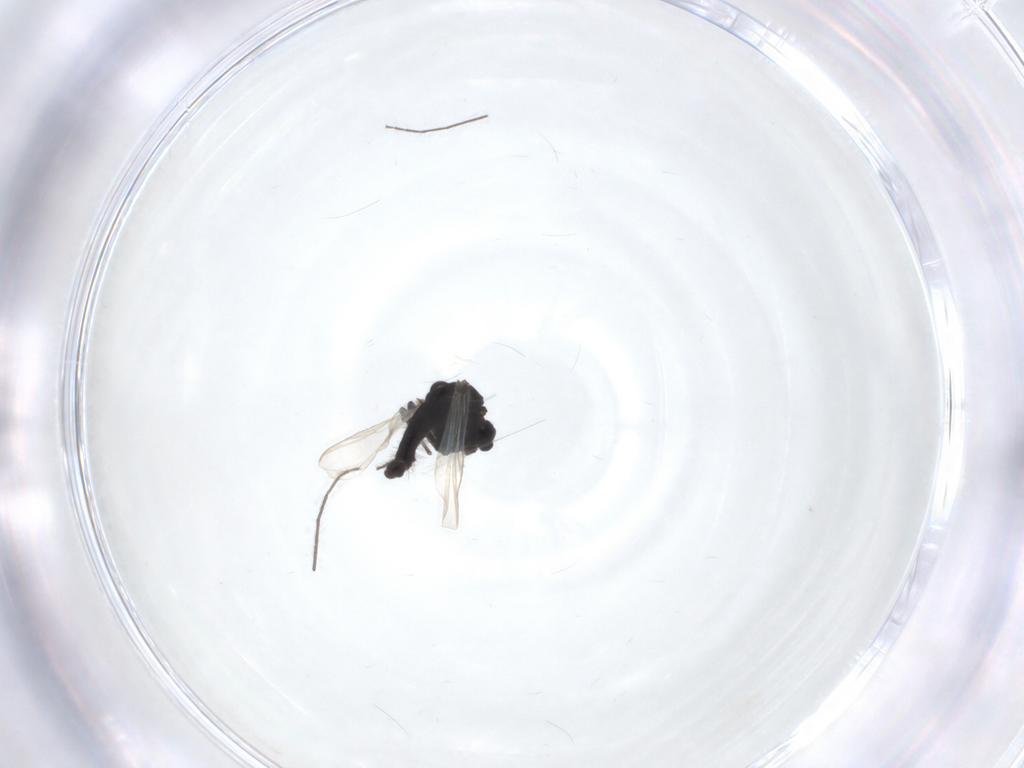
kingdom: Animalia
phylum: Arthropoda
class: Insecta
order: Diptera
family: Chironomidae
